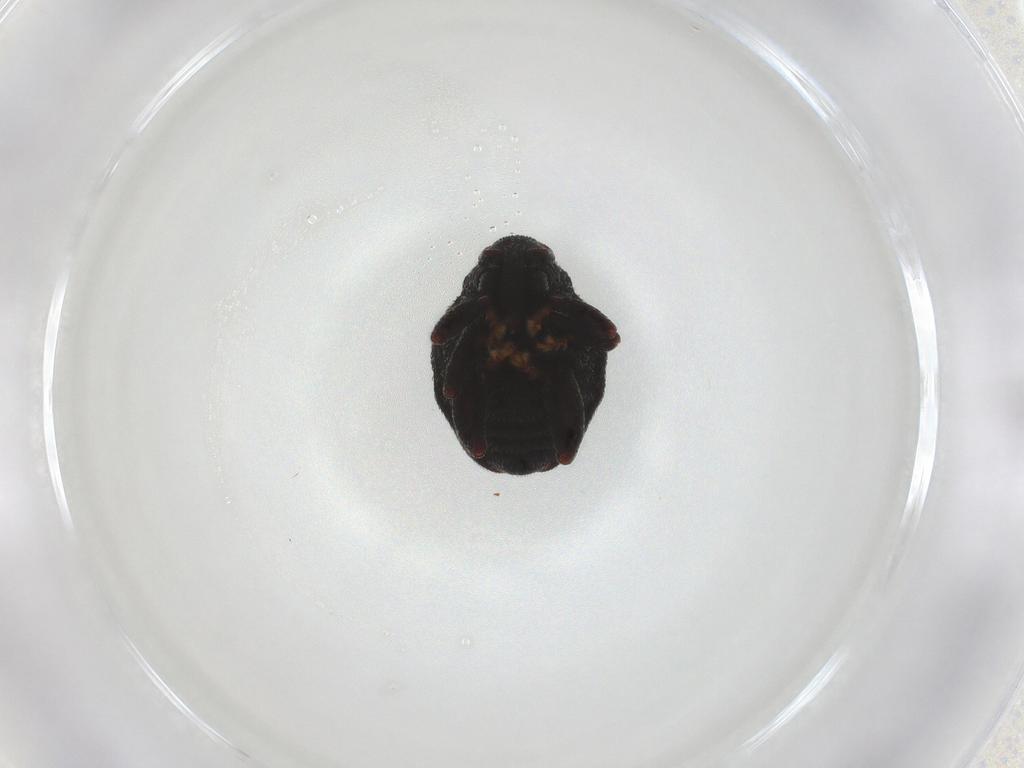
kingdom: Animalia
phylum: Arthropoda
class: Insecta
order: Coleoptera
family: Curculionidae
